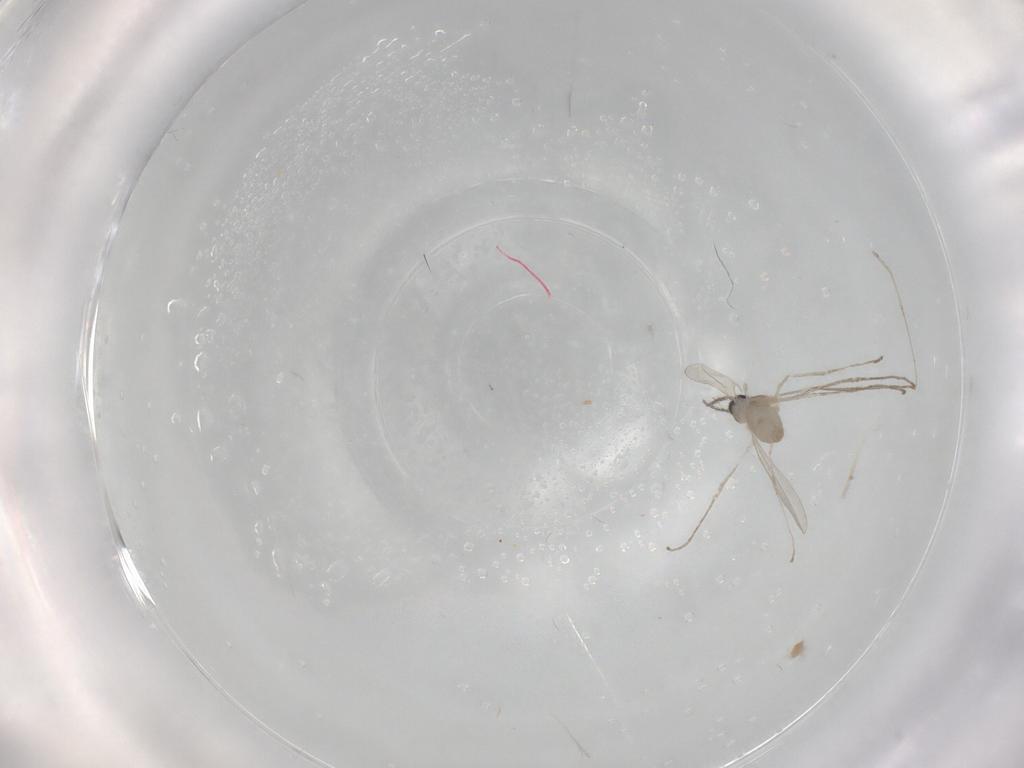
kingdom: Animalia
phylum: Arthropoda
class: Insecta
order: Diptera
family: Cecidomyiidae
